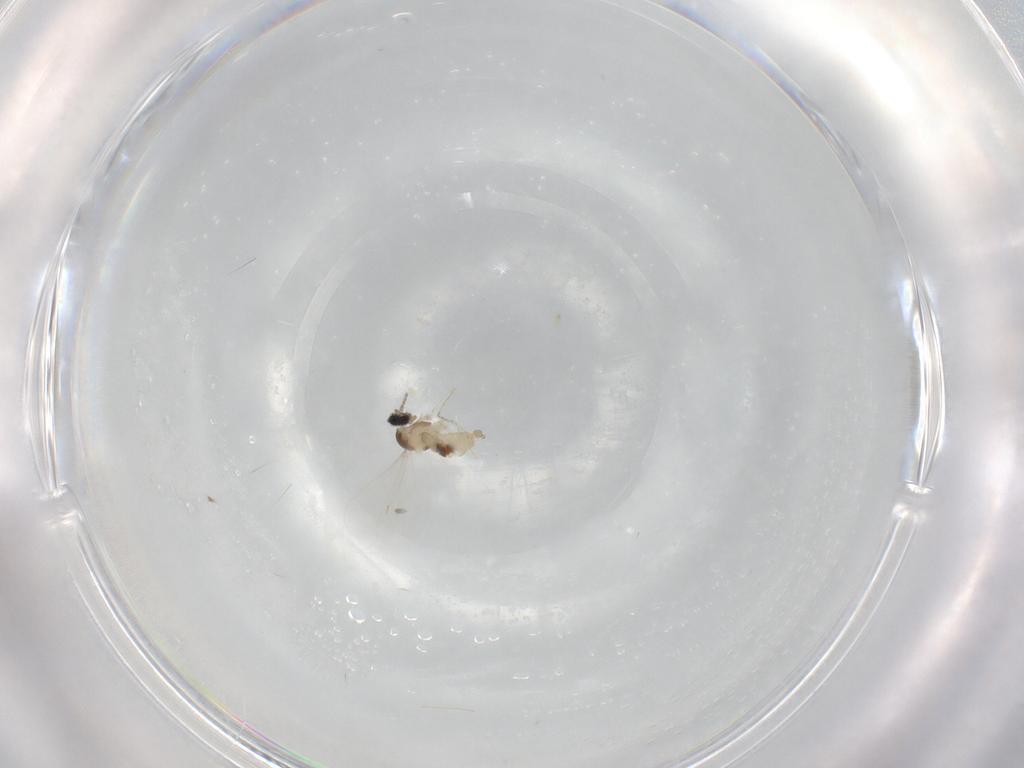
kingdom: Animalia
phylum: Arthropoda
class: Insecta
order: Diptera
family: Cecidomyiidae
